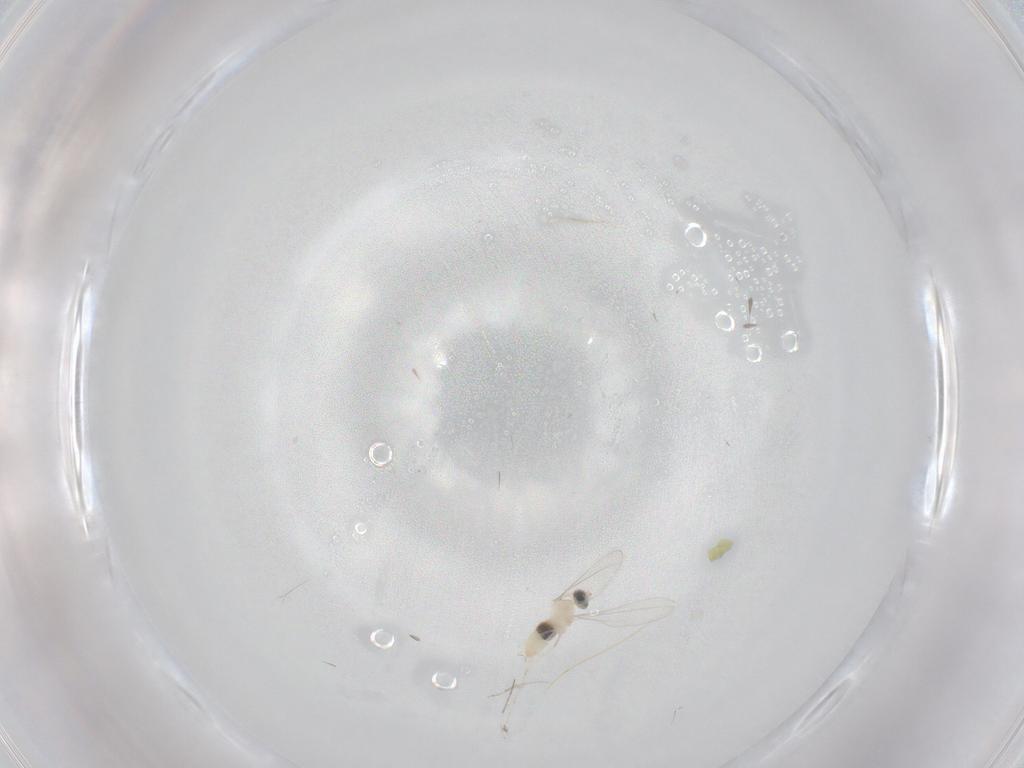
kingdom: Animalia
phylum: Arthropoda
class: Insecta
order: Diptera
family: Cecidomyiidae
